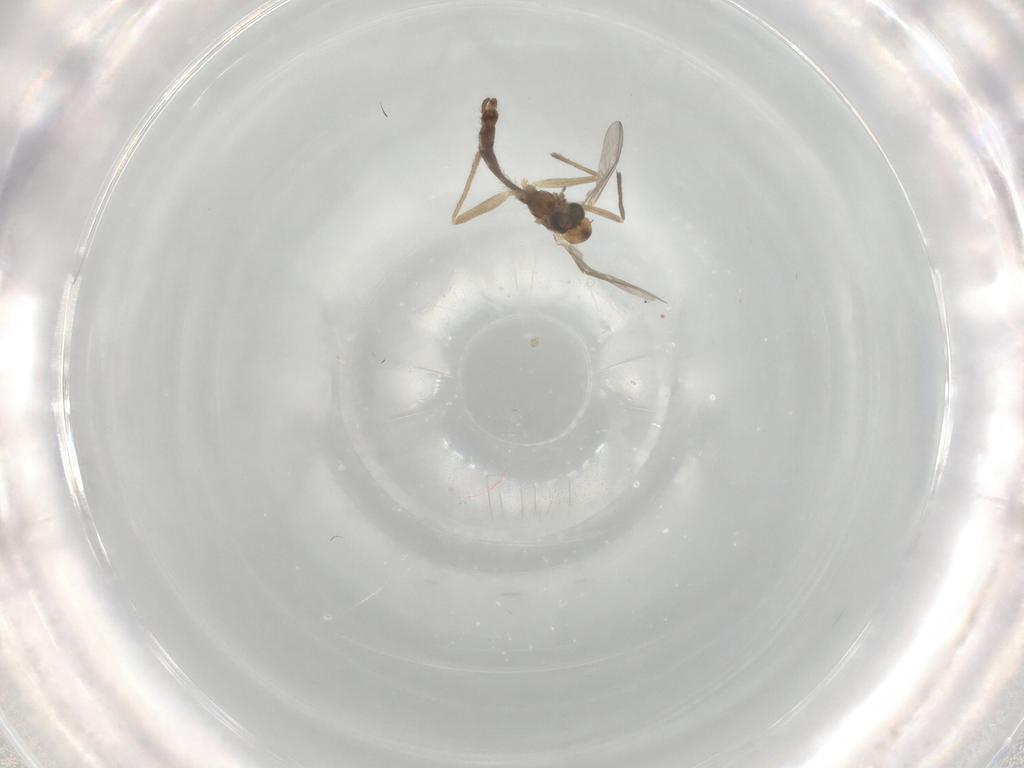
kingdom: Animalia
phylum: Arthropoda
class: Insecta
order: Diptera
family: Chironomidae
